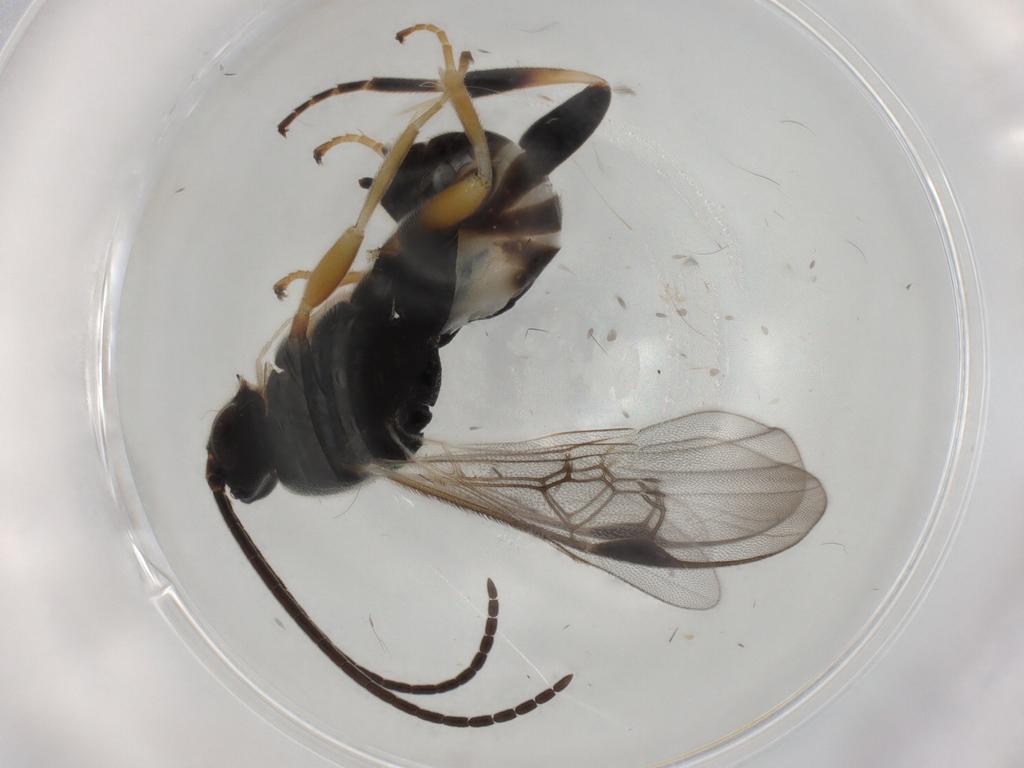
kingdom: Animalia
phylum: Arthropoda
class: Insecta
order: Hymenoptera
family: Braconidae
